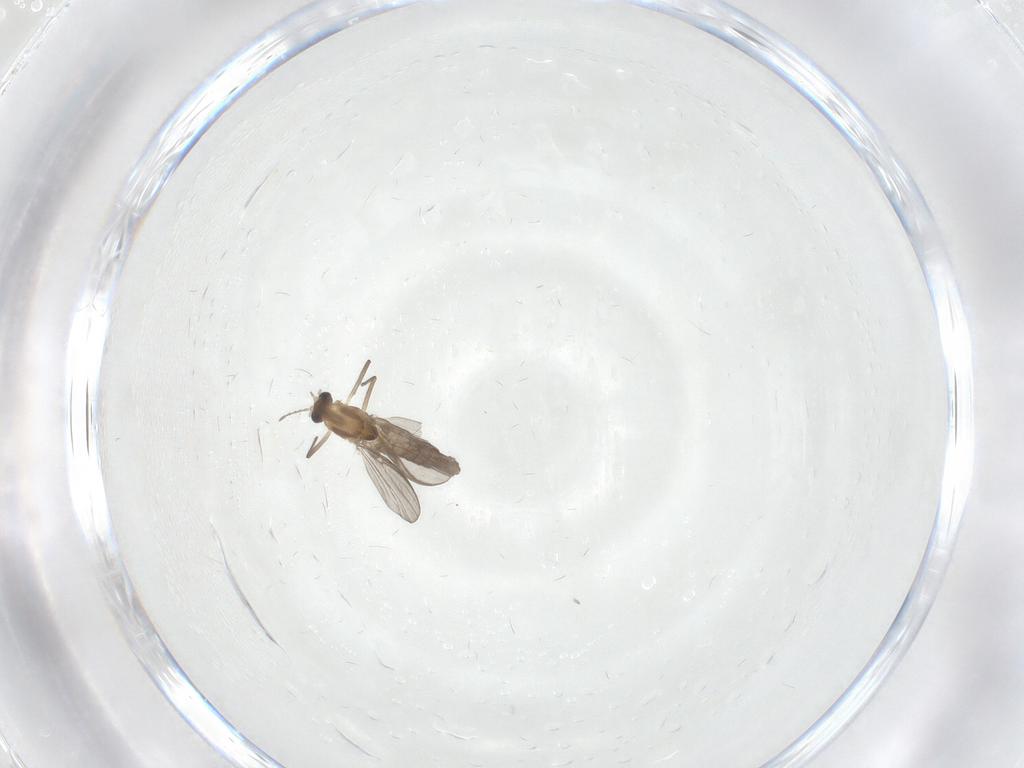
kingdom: Animalia
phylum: Arthropoda
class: Insecta
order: Diptera
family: Chironomidae
